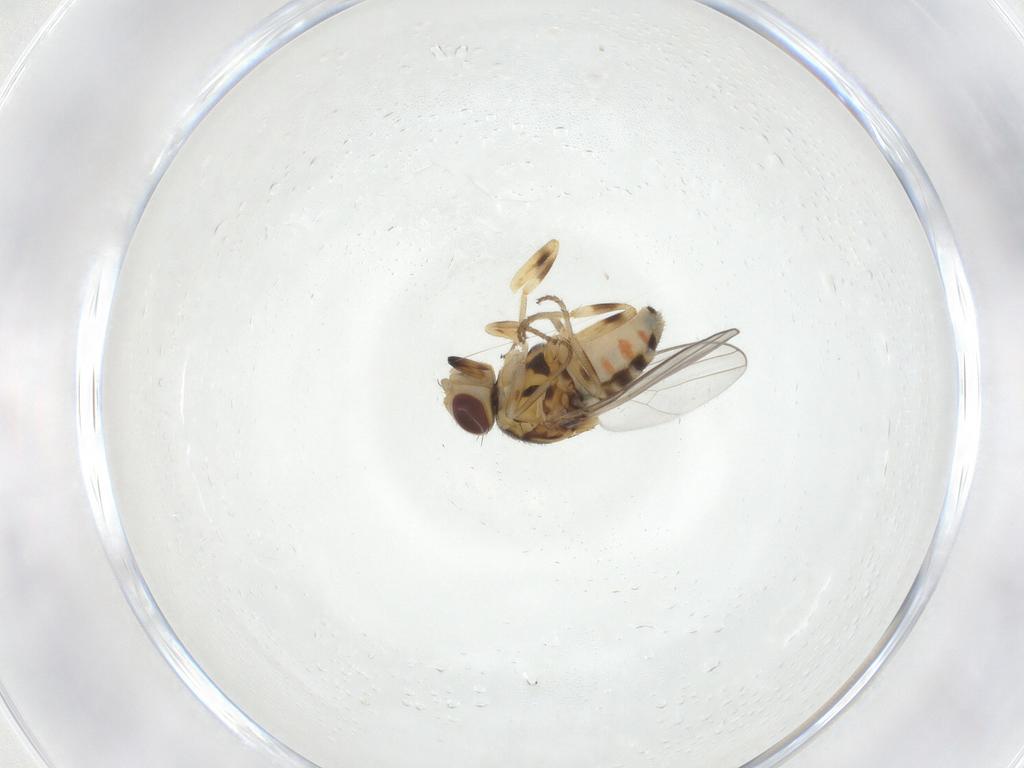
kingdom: Animalia
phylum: Arthropoda
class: Insecta
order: Diptera
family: Chloropidae
